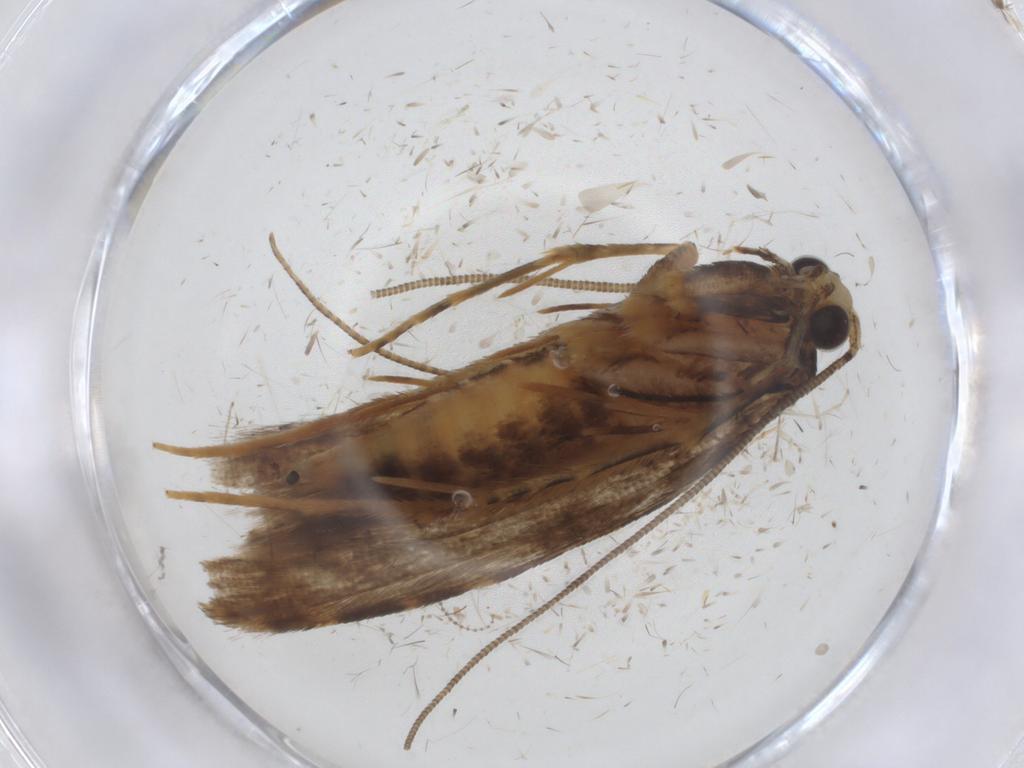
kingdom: Animalia
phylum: Arthropoda
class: Insecta
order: Lepidoptera
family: Tineidae
